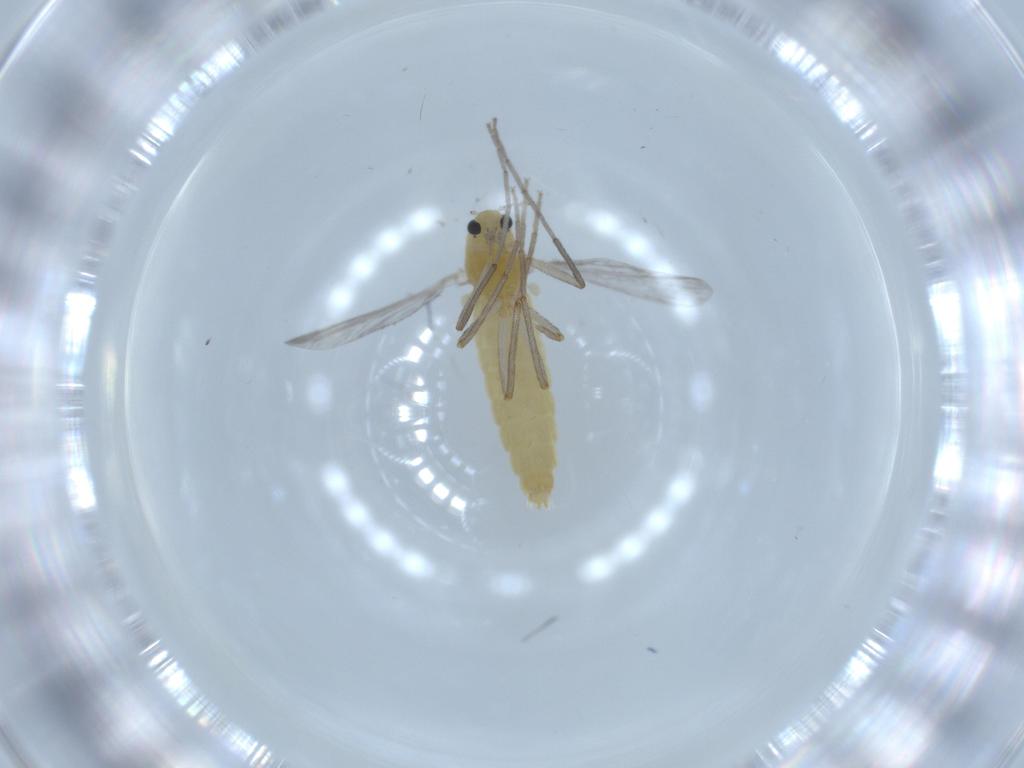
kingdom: Animalia
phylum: Arthropoda
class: Insecta
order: Diptera
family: Chironomidae
